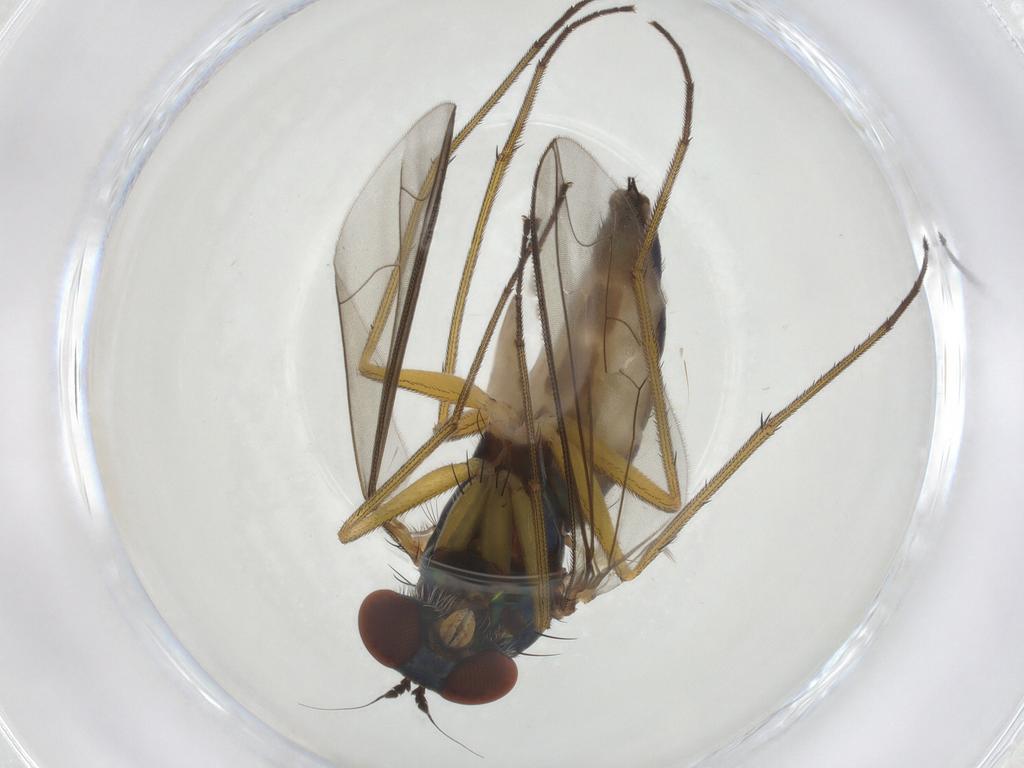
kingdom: Animalia
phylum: Arthropoda
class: Insecta
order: Diptera
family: Dolichopodidae
